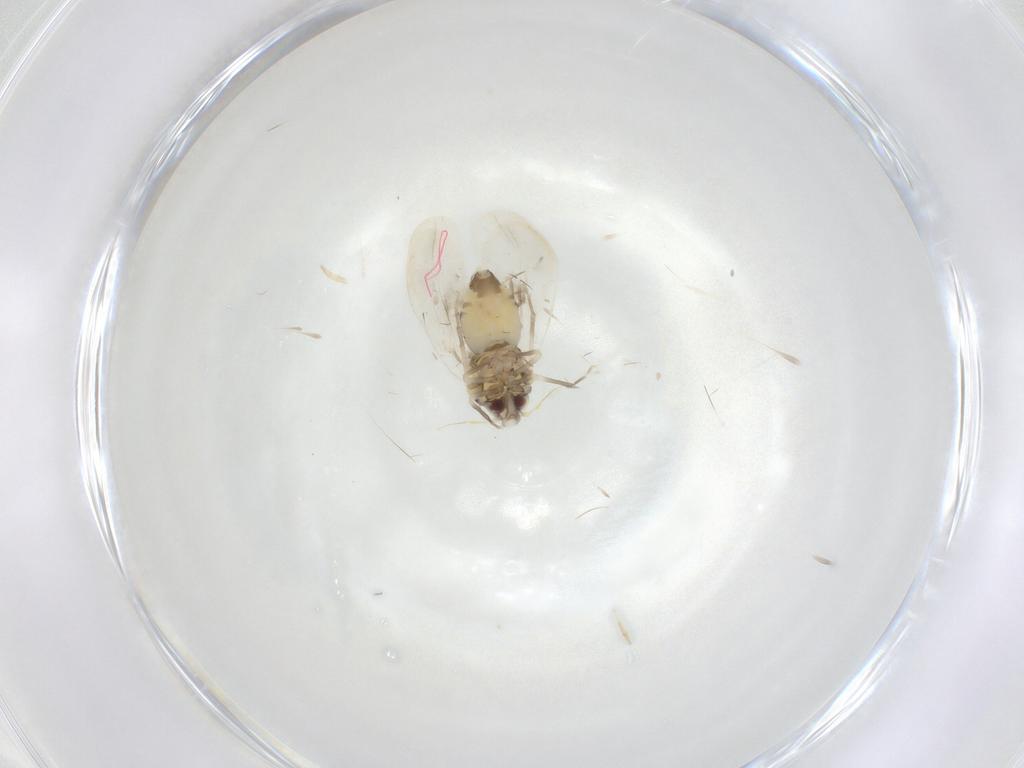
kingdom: Animalia
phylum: Arthropoda
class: Insecta
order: Hemiptera
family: Aleyrodidae
